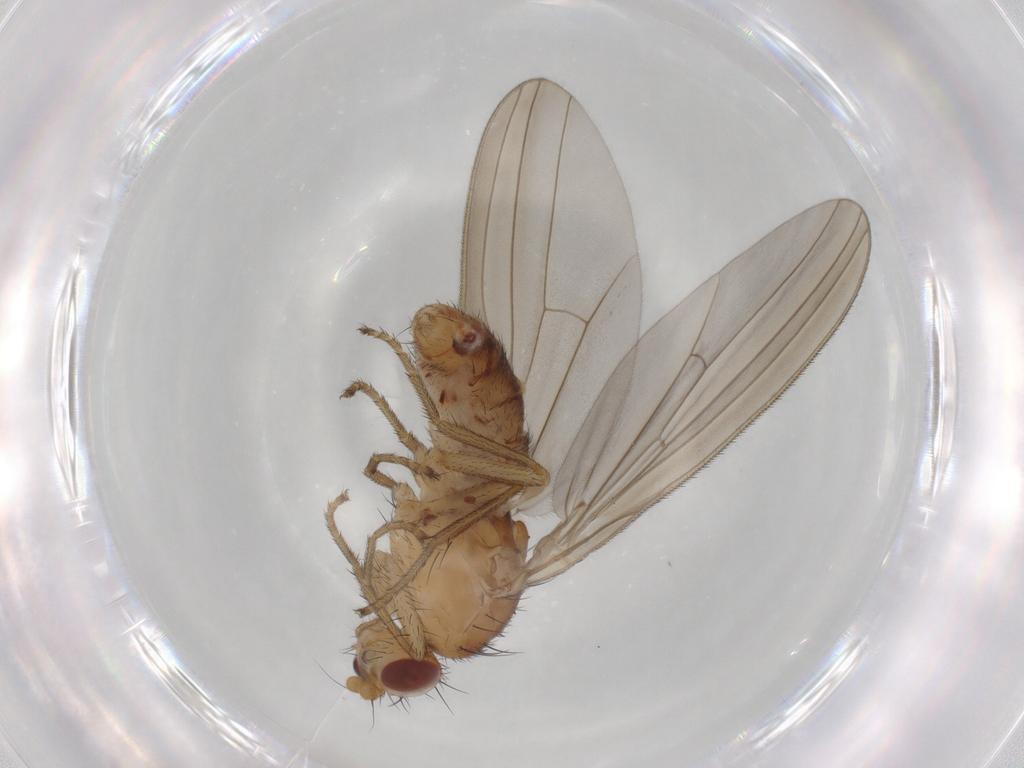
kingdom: Animalia
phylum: Arthropoda
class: Insecta
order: Diptera
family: Natalimyzidae
